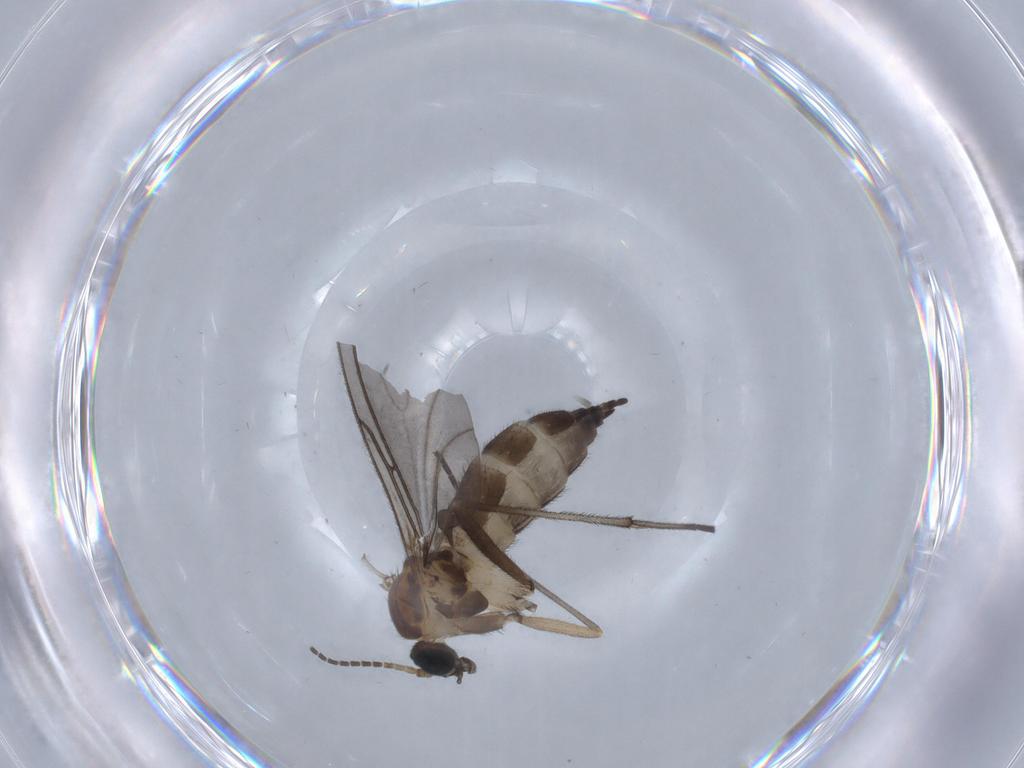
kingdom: Animalia
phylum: Arthropoda
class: Insecta
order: Diptera
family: Sciaridae
